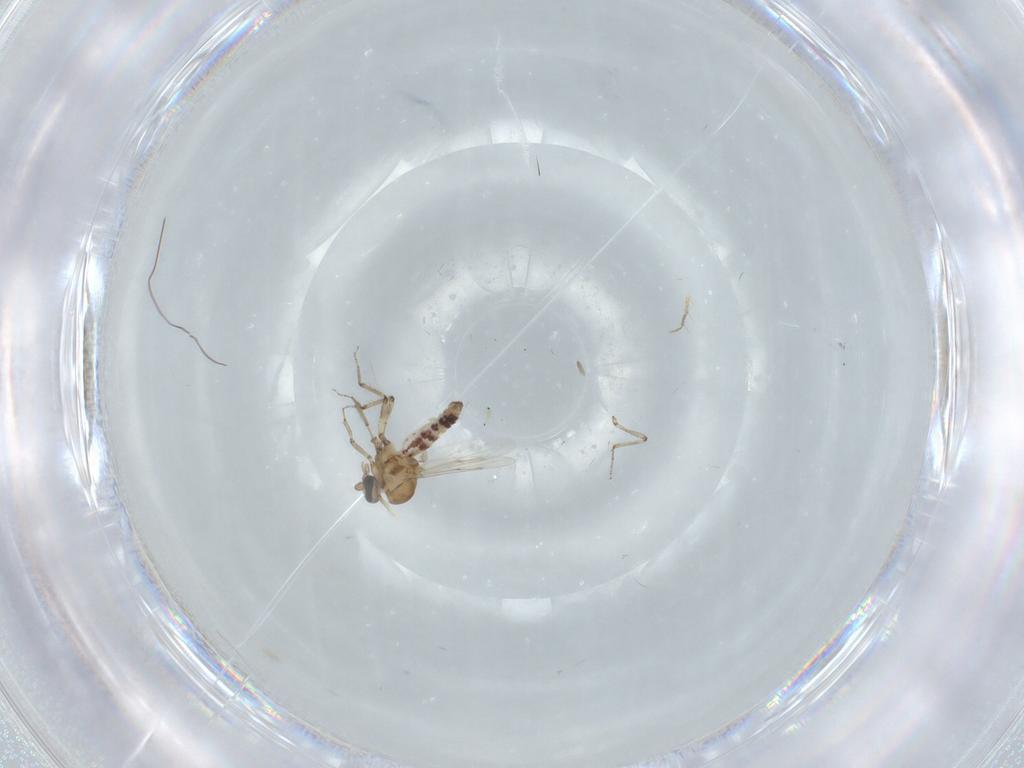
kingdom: Animalia
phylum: Arthropoda
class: Insecta
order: Diptera
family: Ceratopogonidae
